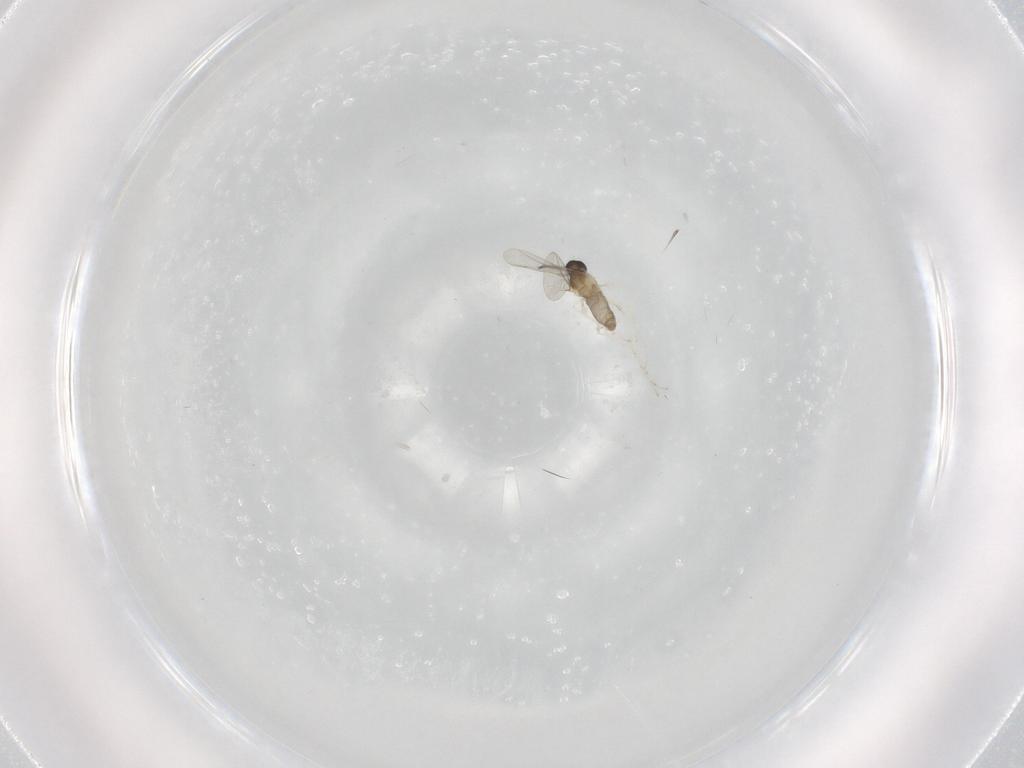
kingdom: Animalia
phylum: Arthropoda
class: Insecta
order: Diptera
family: Cecidomyiidae
